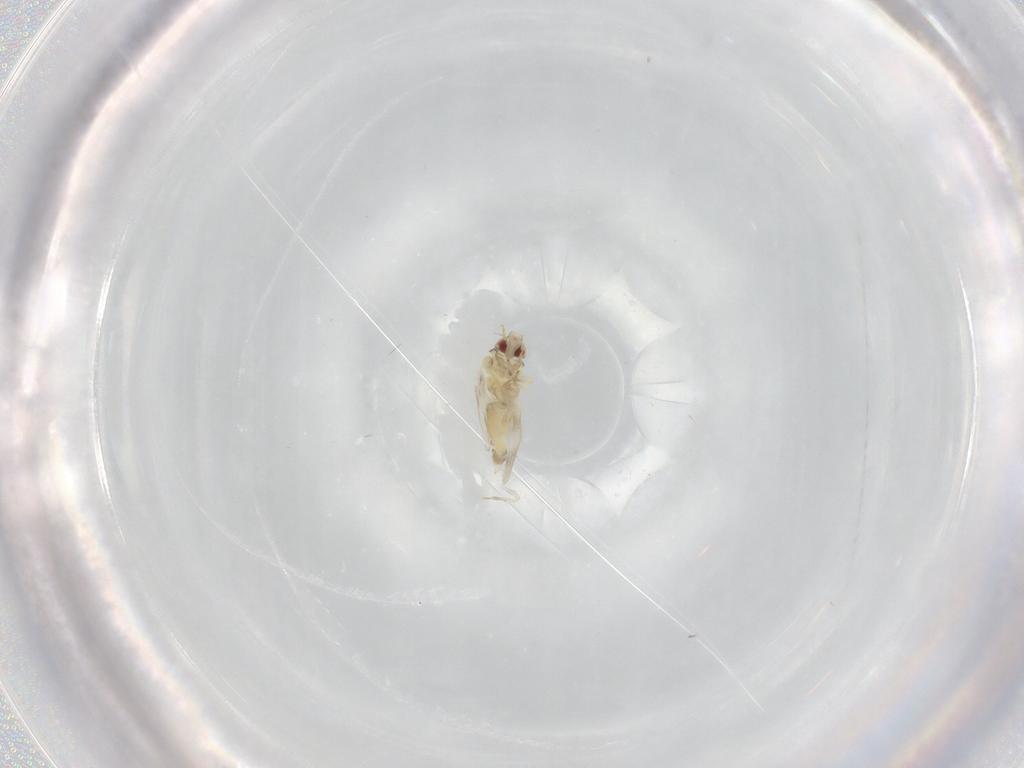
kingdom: Animalia
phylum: Arthropoda
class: Insecta
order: Hemiptera
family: Aleyrodidae
